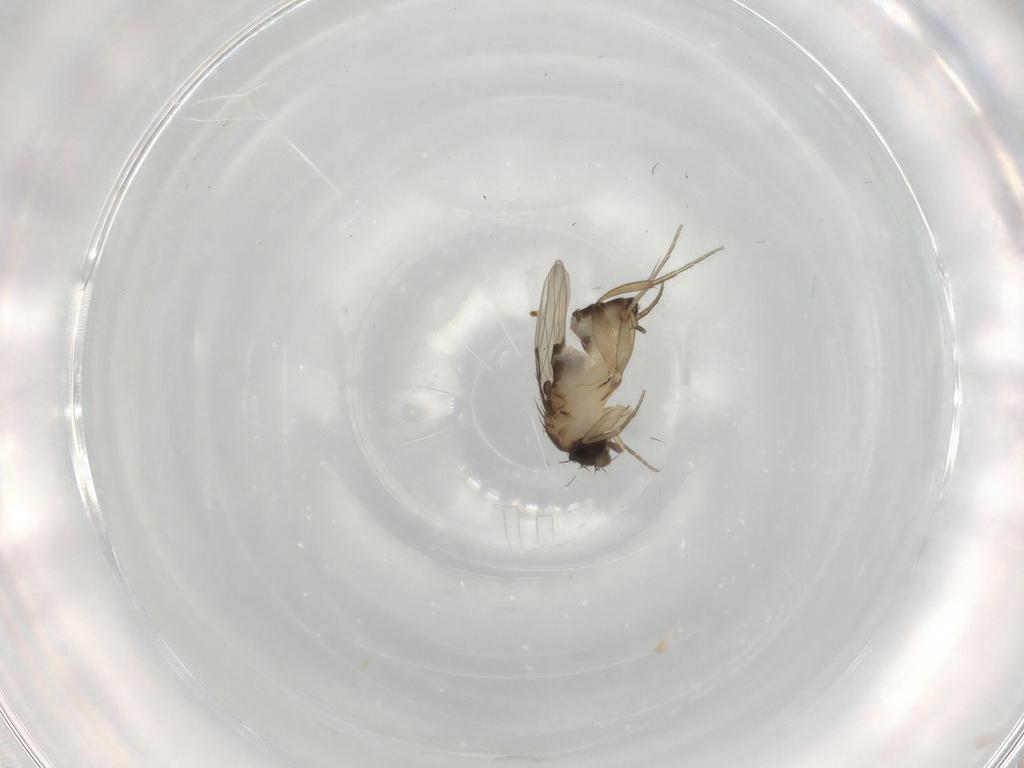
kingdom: Animalia
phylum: Arthropoda
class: Insecta
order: Diptera
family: Phoridae
